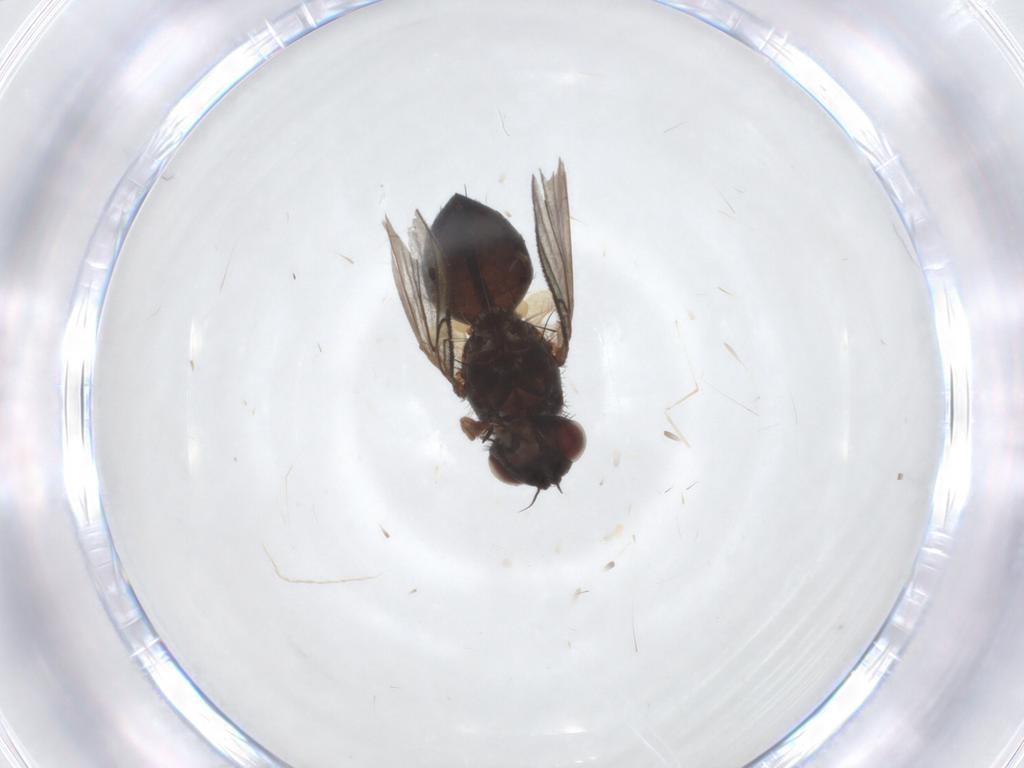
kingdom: Animalia
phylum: Arthropoda
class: Insecta
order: Diptera
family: Cecidomyiidae
